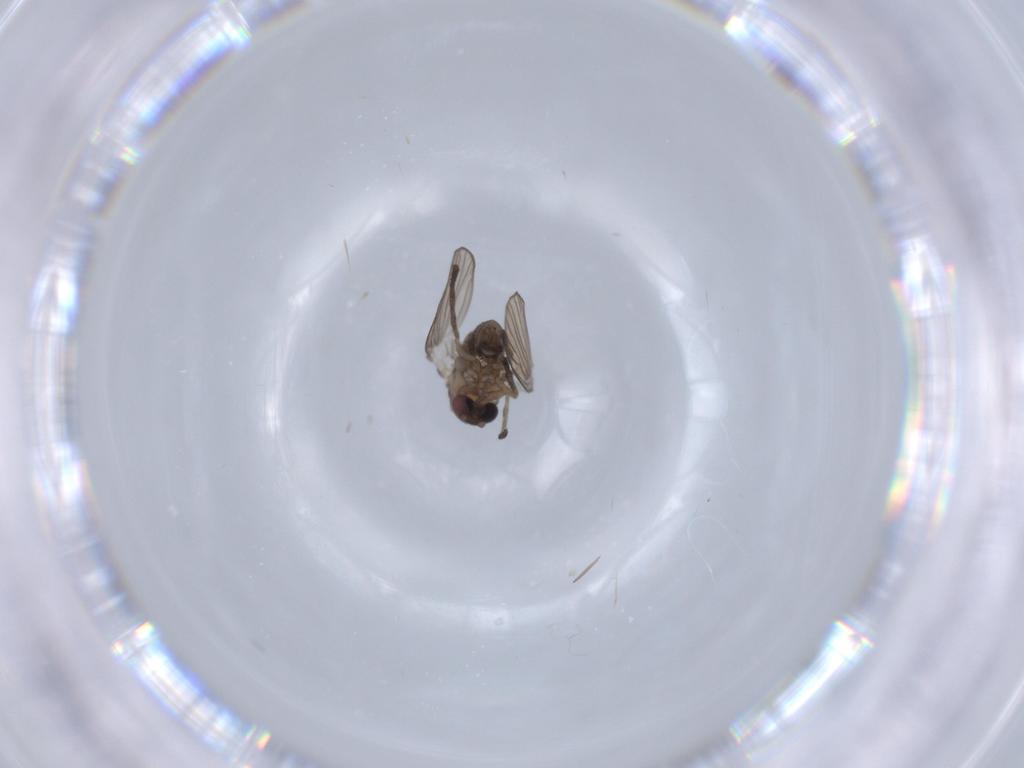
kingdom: Animalia
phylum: Arthropoda
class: Insecta
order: Diptera
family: Psychodidae
